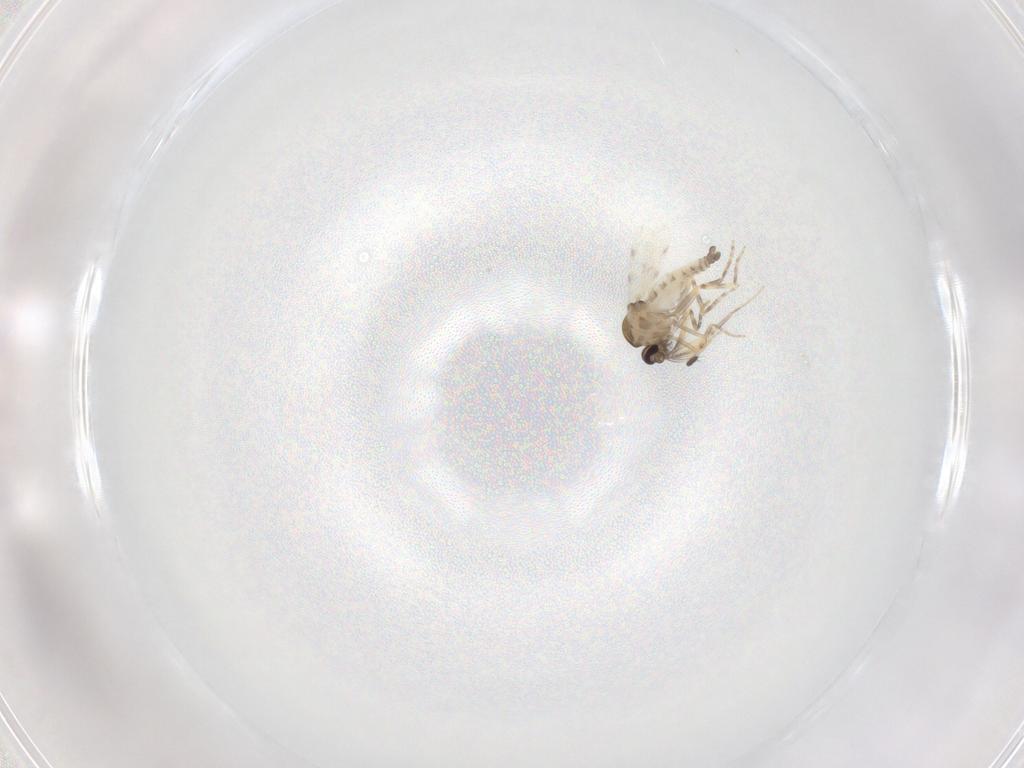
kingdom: Animalia
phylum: Arthropoda
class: Insecta
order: Diptera
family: Ceratopogonidae
